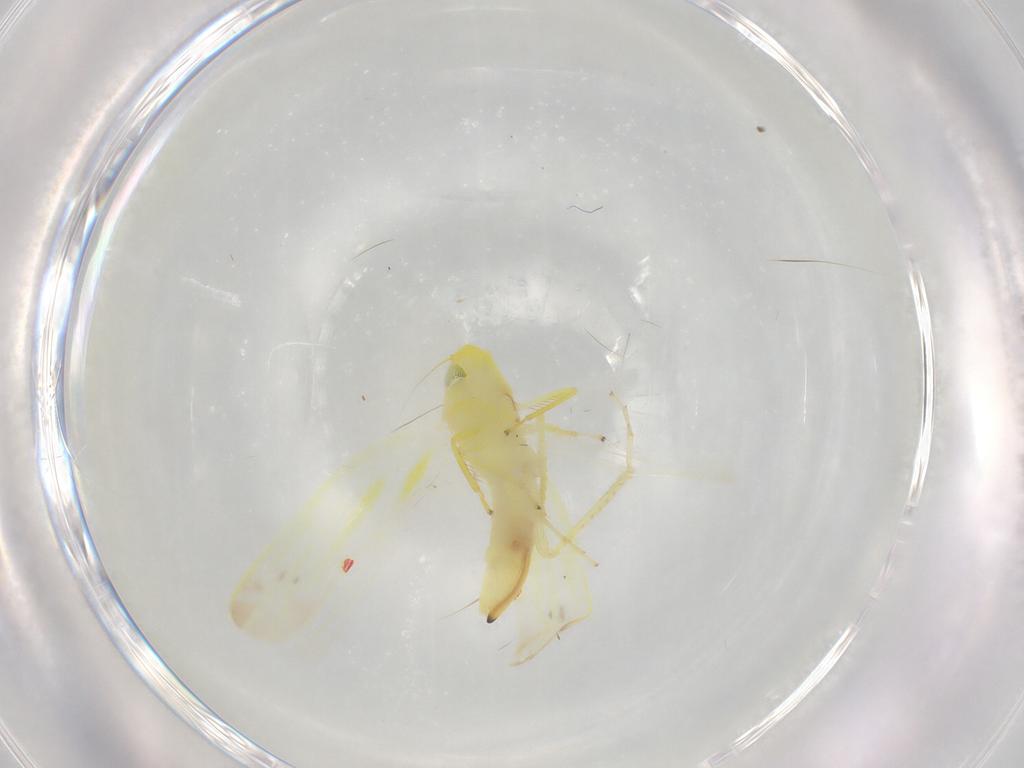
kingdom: Animalia
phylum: Arthropoda
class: Insecta
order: Hemiptera
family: Cicadellidae
